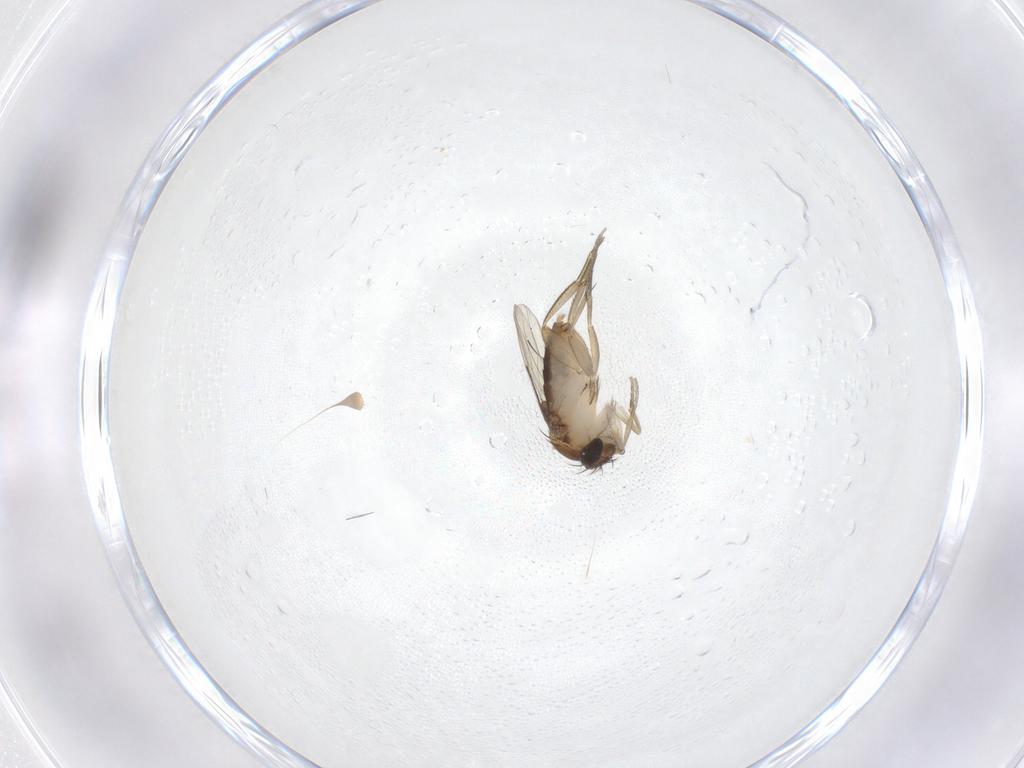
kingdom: Animalia
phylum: Arthropoda
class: Insecta
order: Diptera
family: Phoridae
